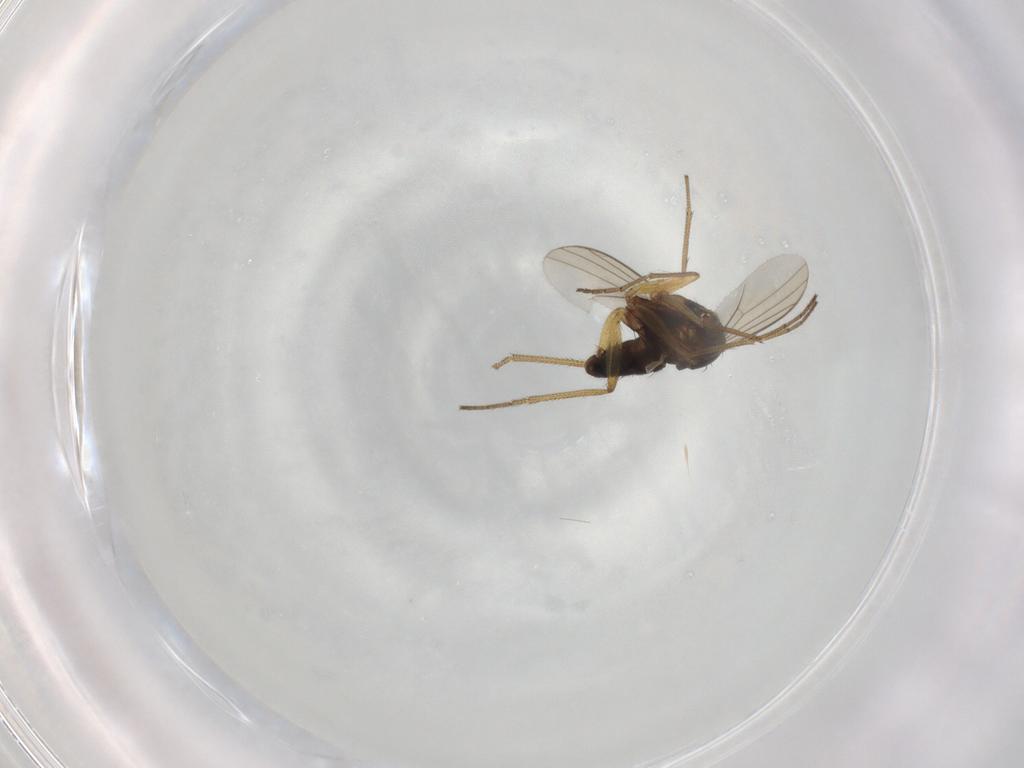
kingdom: Animalia
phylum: Arthropoda
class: Insecta
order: Diptera
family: Dolichopodidae
